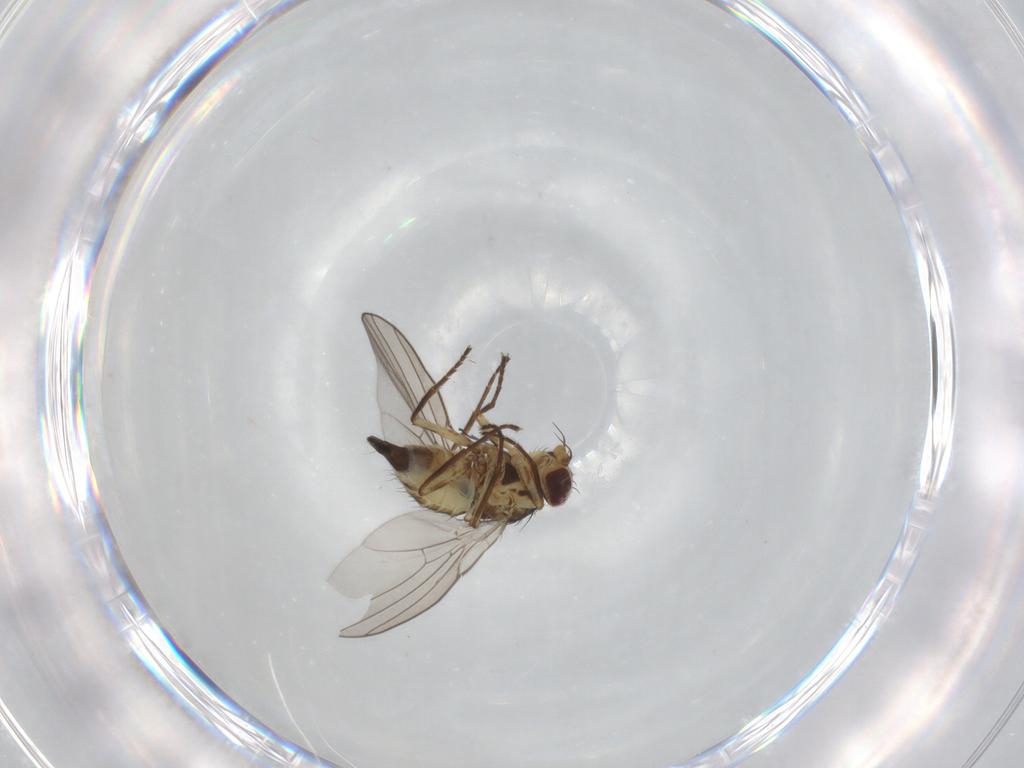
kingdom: Animalia
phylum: Arthropoda
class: Insecta
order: Diptera
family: Agromyzidae
